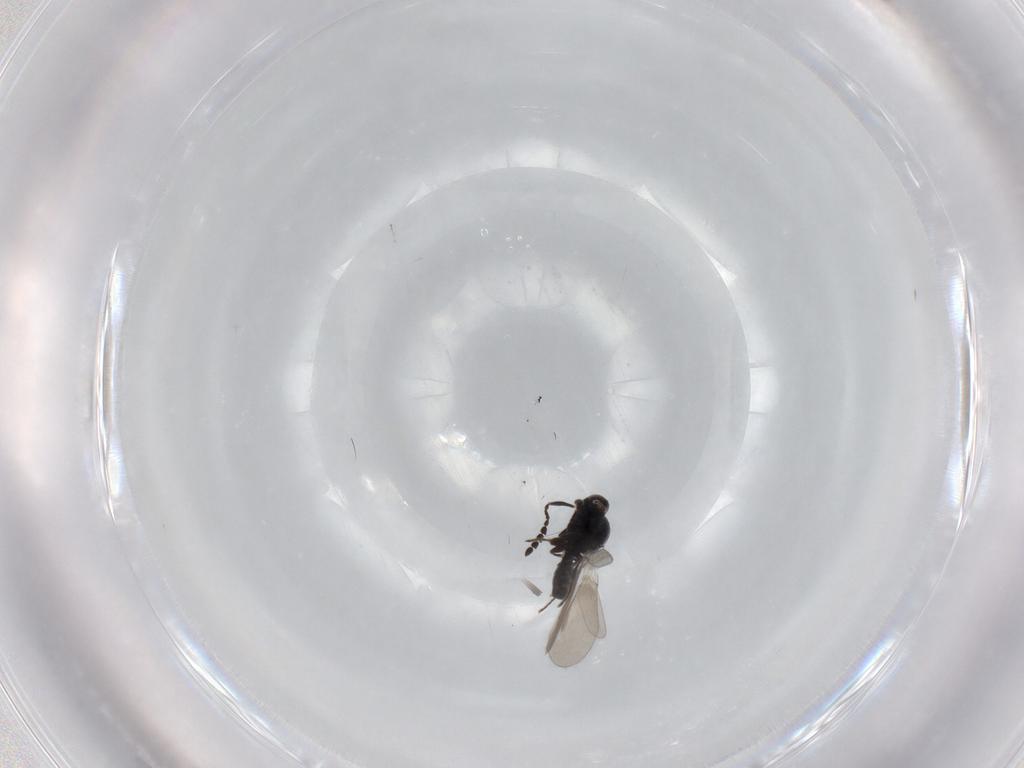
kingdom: Animalia
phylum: Arthropoda
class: Insecta
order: Hymenoptera
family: Platygastridae
